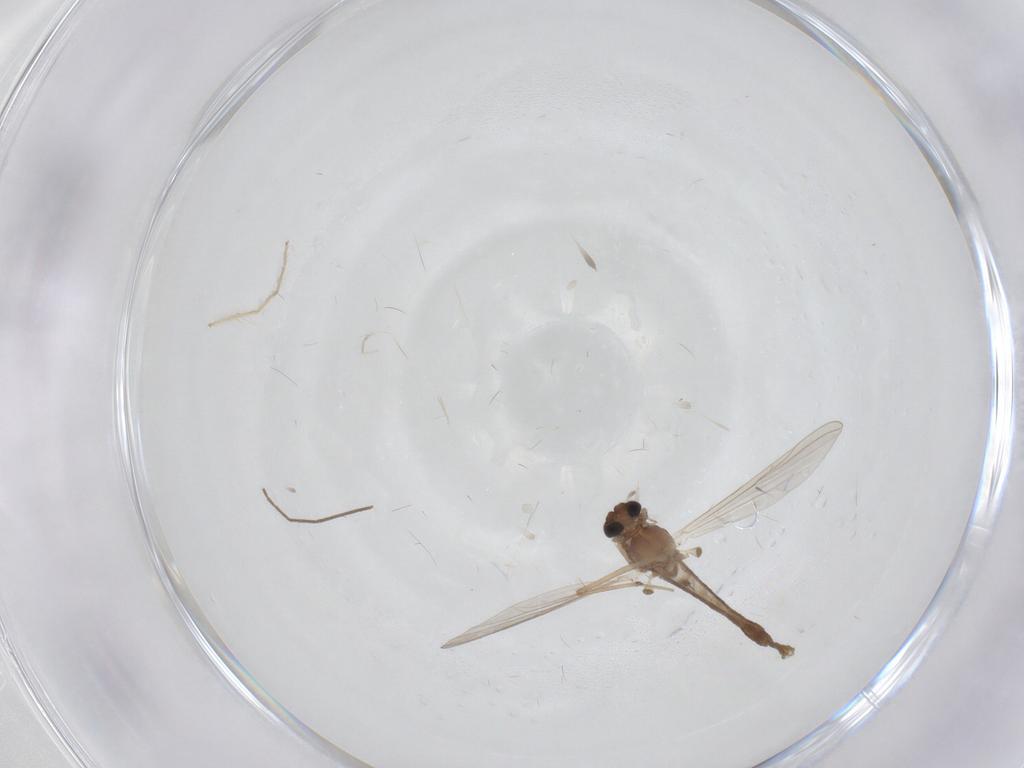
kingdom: Animalia
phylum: Arthropoda
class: Insecta
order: Diptera
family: Chironomidae
